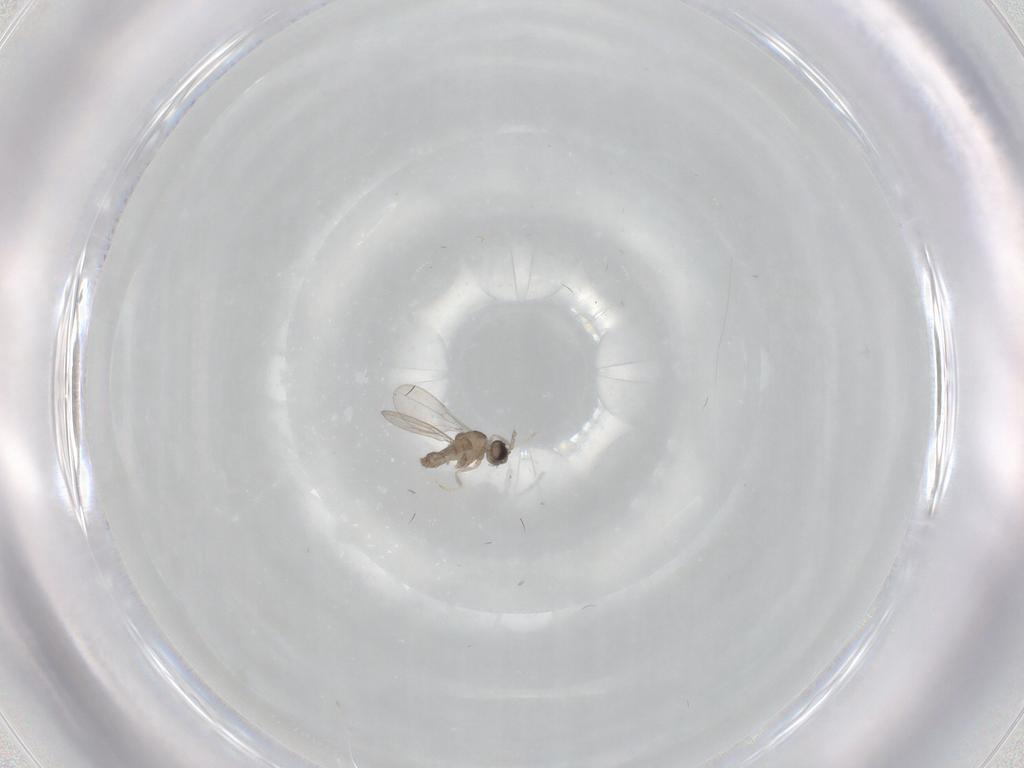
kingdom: Animalia
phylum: Arthropoda
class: Insecta
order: Diptera
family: Cecidomyiidae
